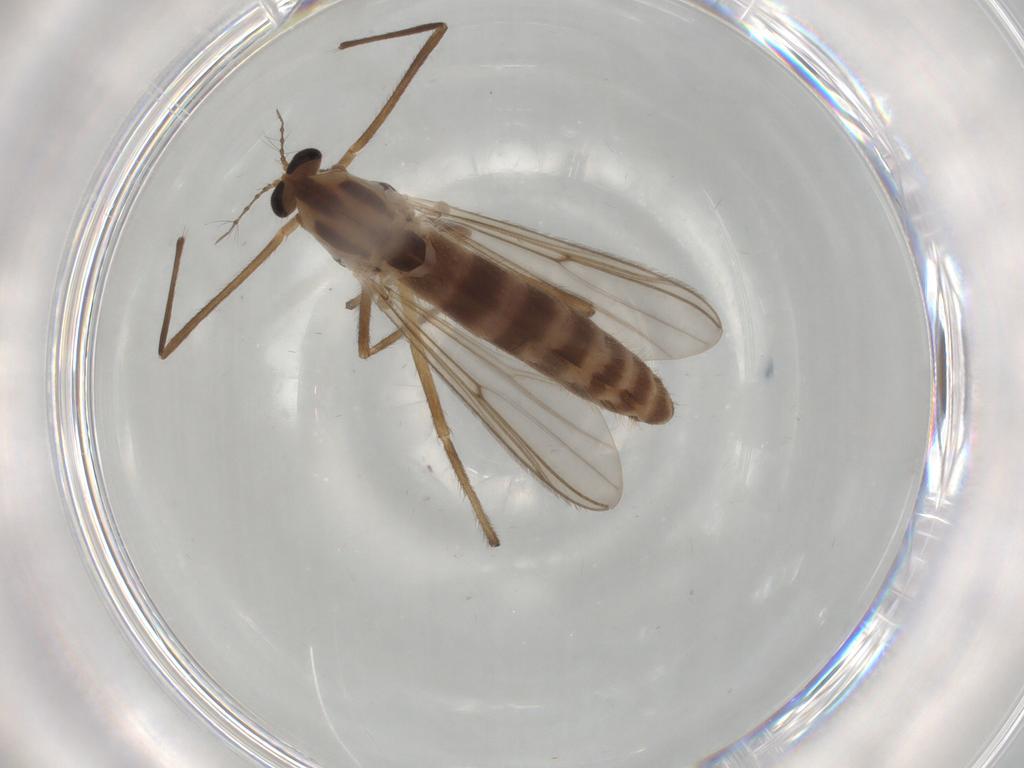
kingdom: Animalia
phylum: Arthropoda
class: Insecta
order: Diptera
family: Chironomidae
